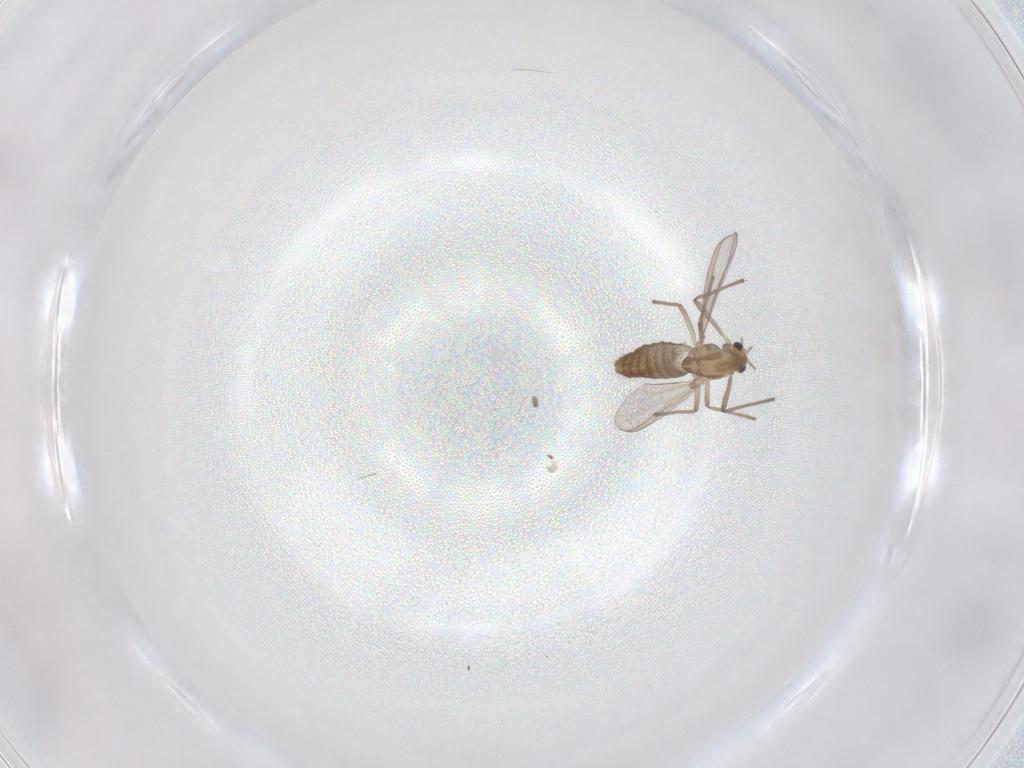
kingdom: Animalia
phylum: Arthropoda
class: Insecta
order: Diptera
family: Chironomidae
